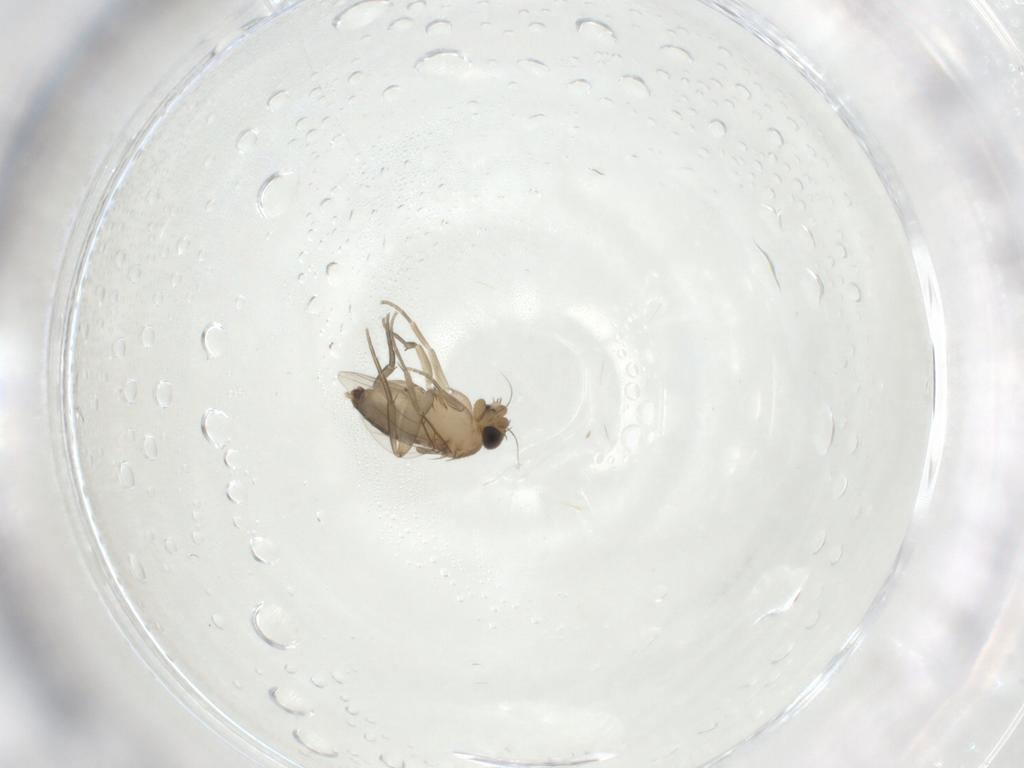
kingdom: Animalia
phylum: Arthropoda
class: Insecta
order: Diptera
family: Phoridae
